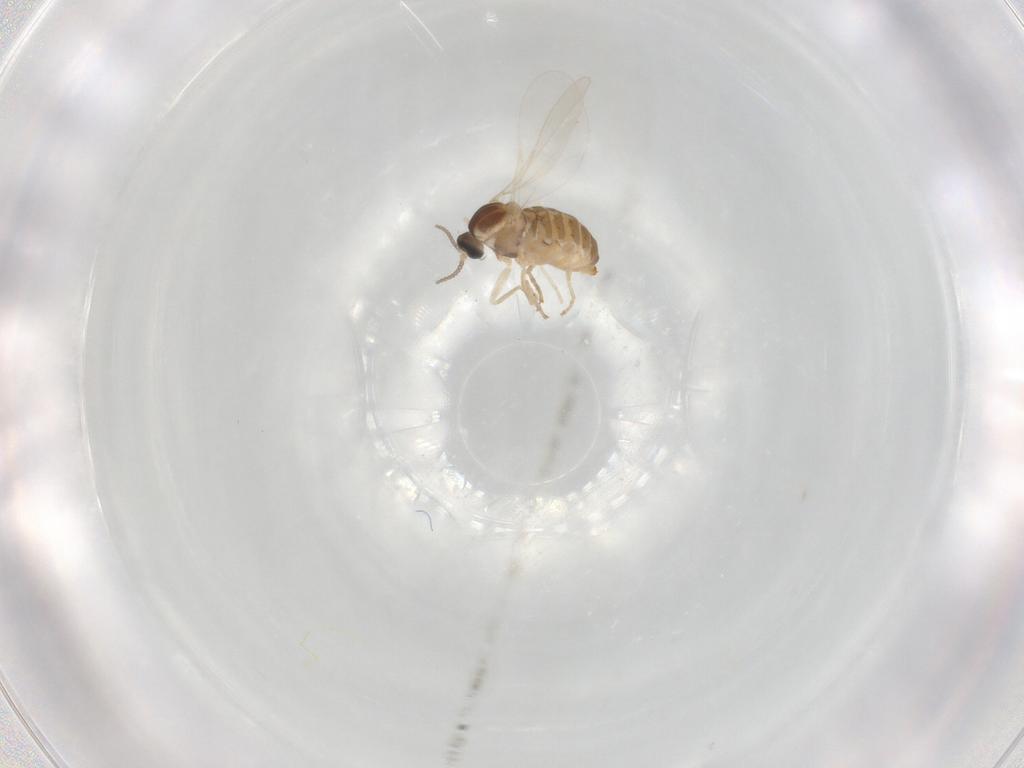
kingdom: Animalia
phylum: Arthropoda
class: Insecta
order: Diptera
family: Cecidomyiidae
